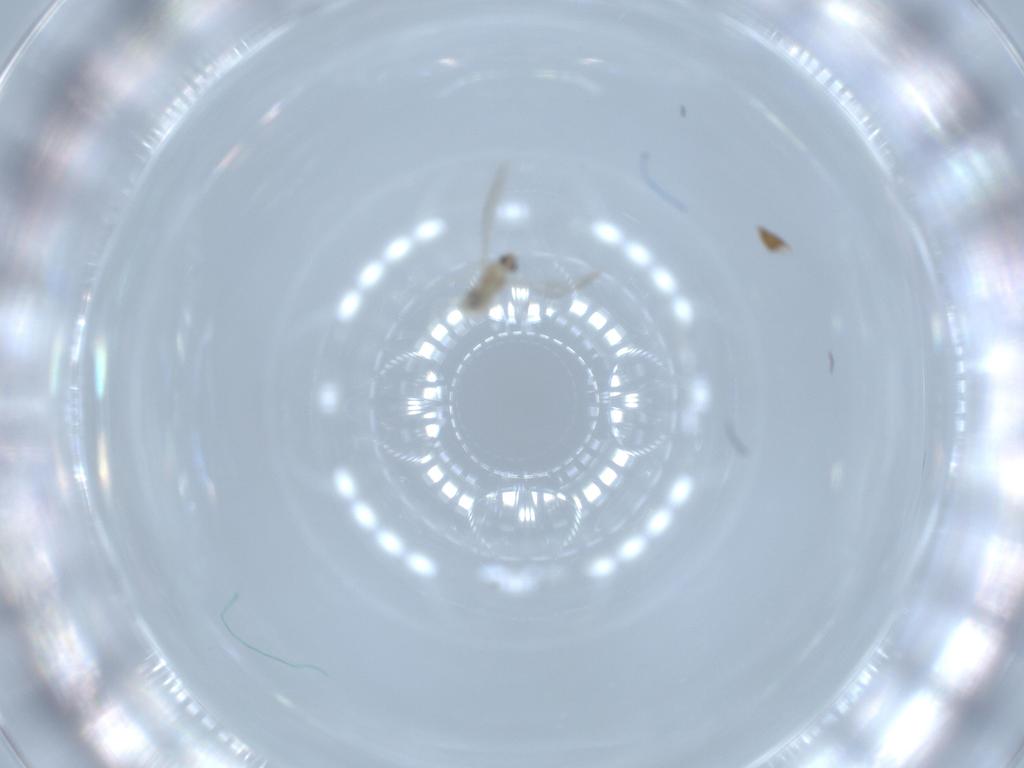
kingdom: Animalia
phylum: Arthropoda
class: Insecta
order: Diptera
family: Cecidomyiidae
